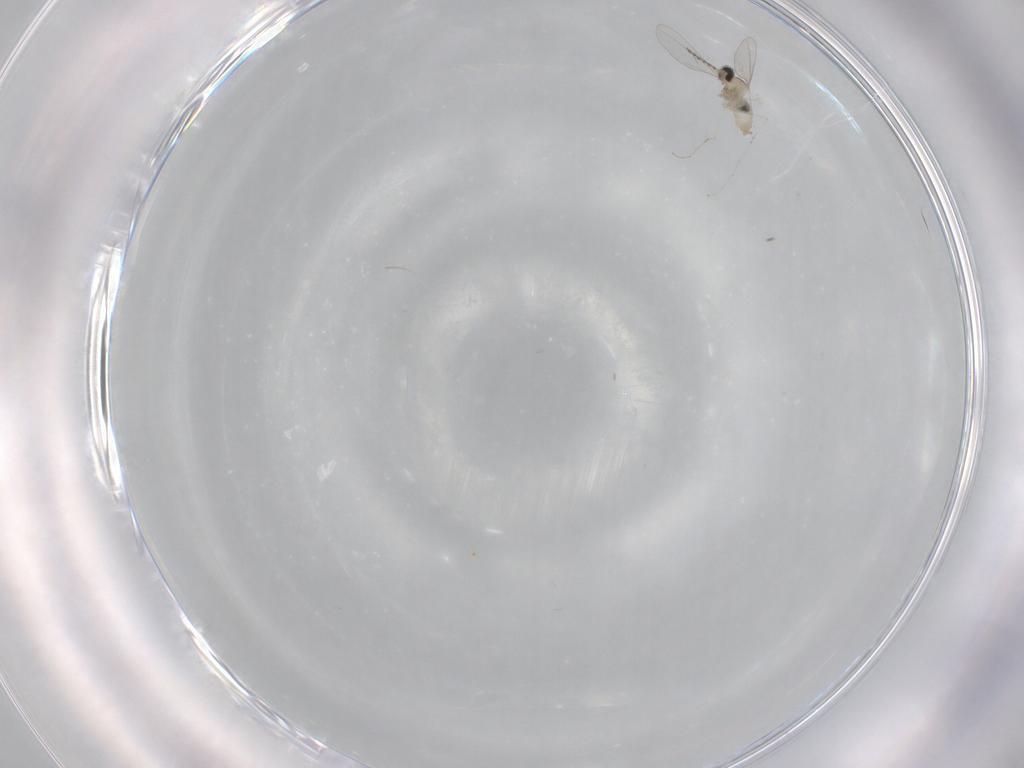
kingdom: Animalia
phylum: Arthropoda
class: Insecta
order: Diptera
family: Cecidomyiidae
